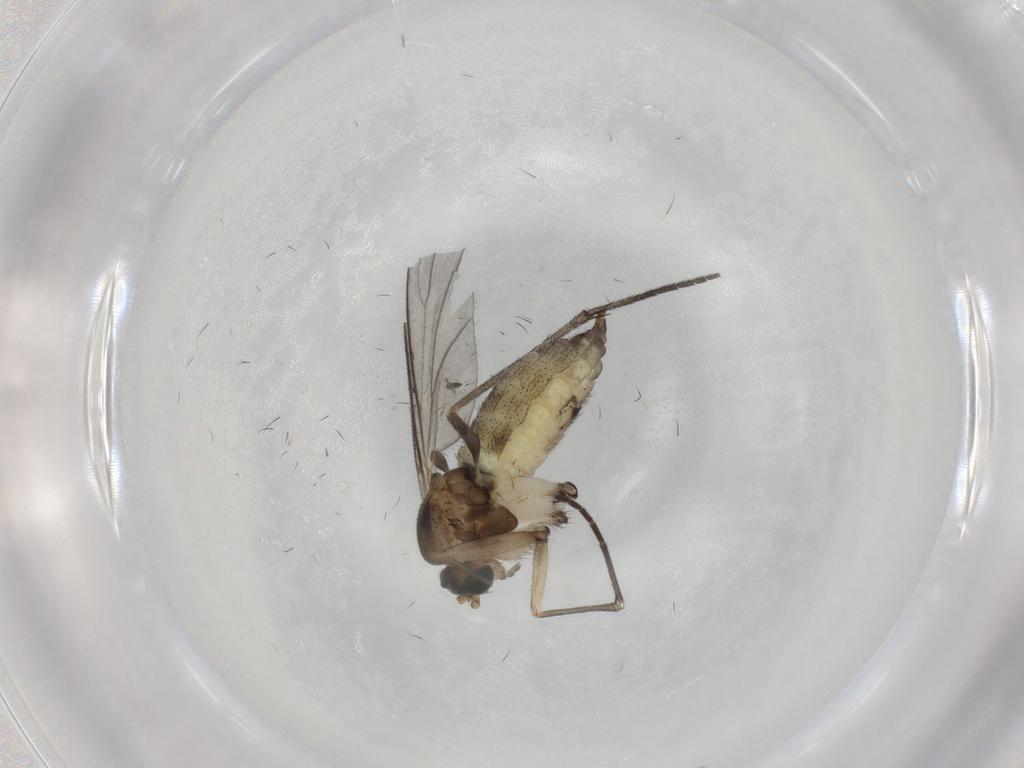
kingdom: Animalia
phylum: Arthropoda
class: Insecta
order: Diptera
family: Sciaridae
